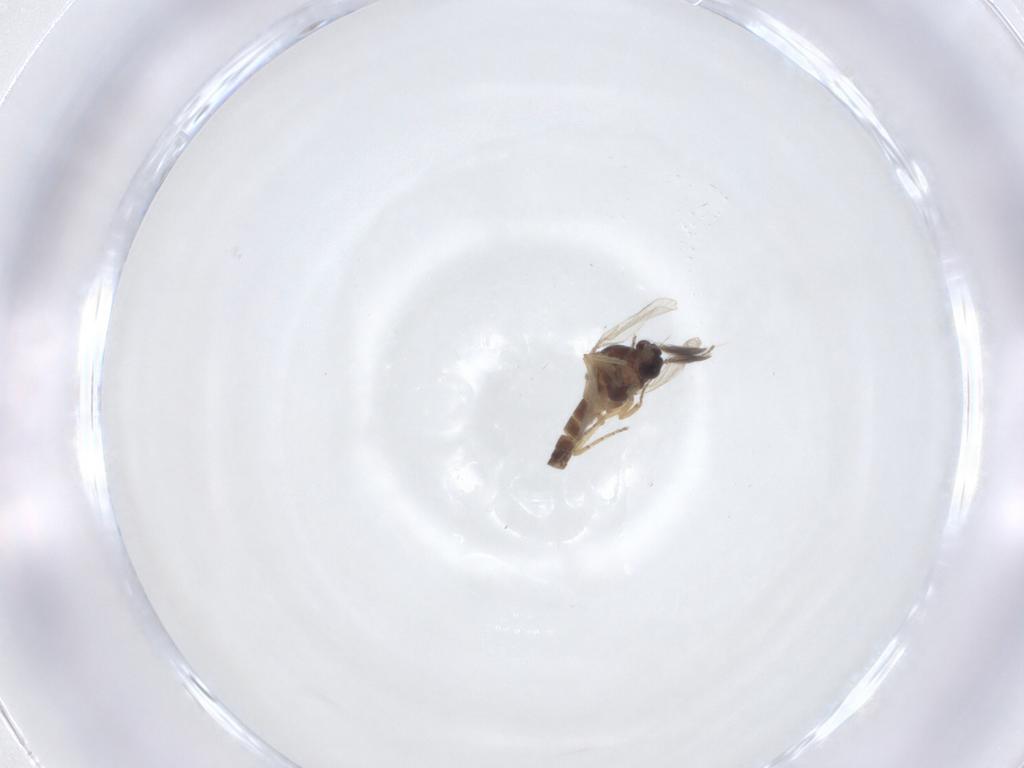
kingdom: Animalia
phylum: Arthropoda
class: Insecta
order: Diptera
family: Ceratopogonidae
